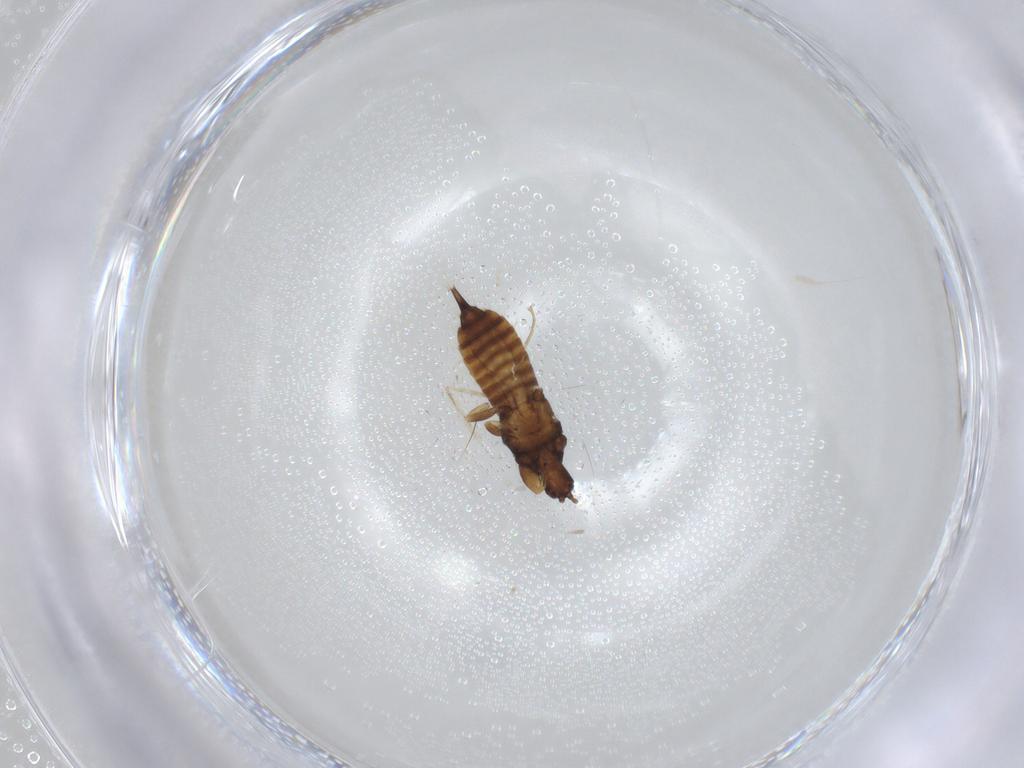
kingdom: Animalia
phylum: Arthropoda
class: Insecta
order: Thysanoptera
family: Phlaeothripidae
